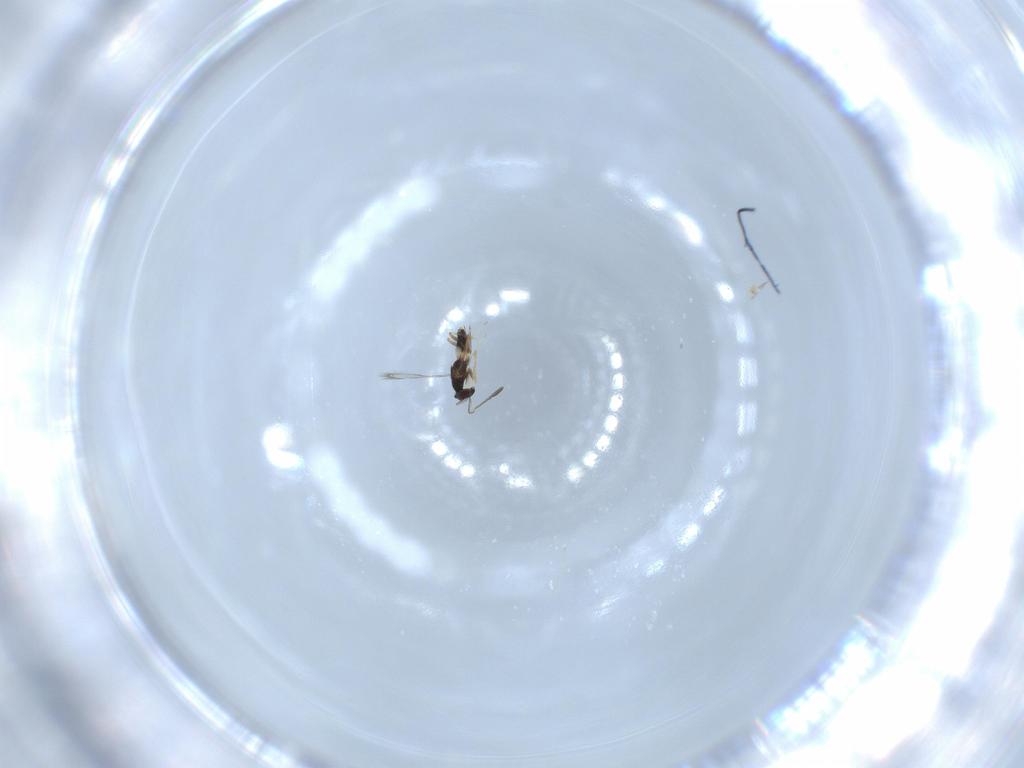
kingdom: Animalia
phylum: Arthropoda
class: Insecta
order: Hymenoptera
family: Mymaridae
